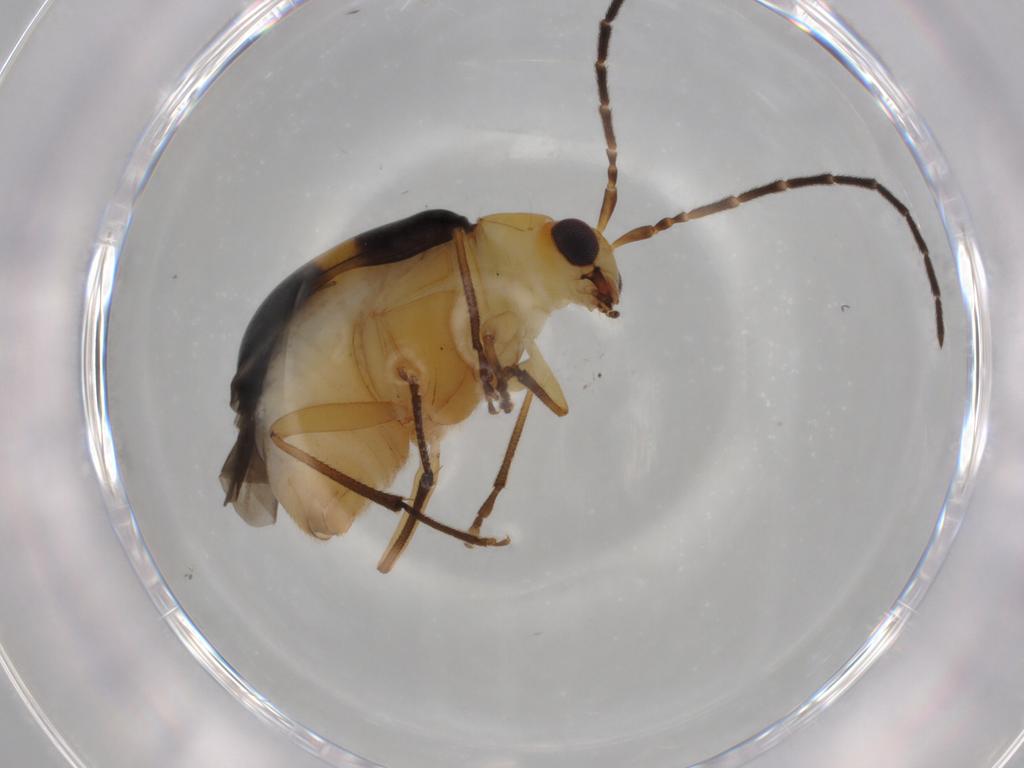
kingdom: Animalia
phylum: Arthropoda
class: Insecta
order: Coleoptera
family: Chrysomelidae
